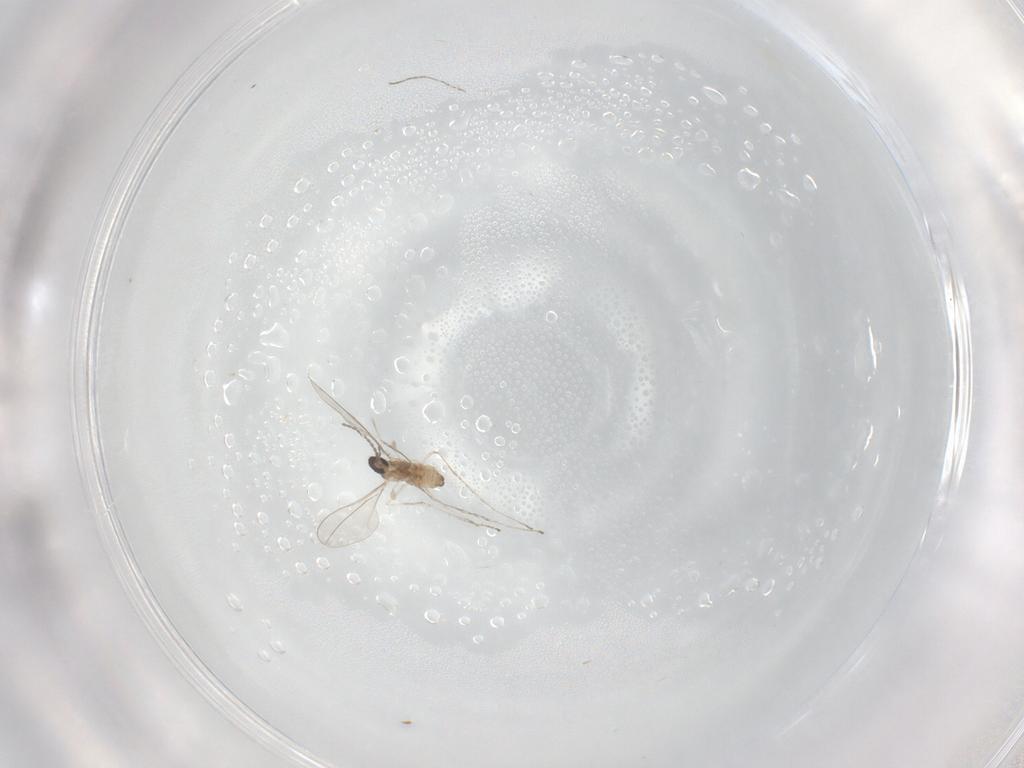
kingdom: Animalia
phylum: Arthropoda
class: Insecta
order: Diptera
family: Cecidomyiidae
